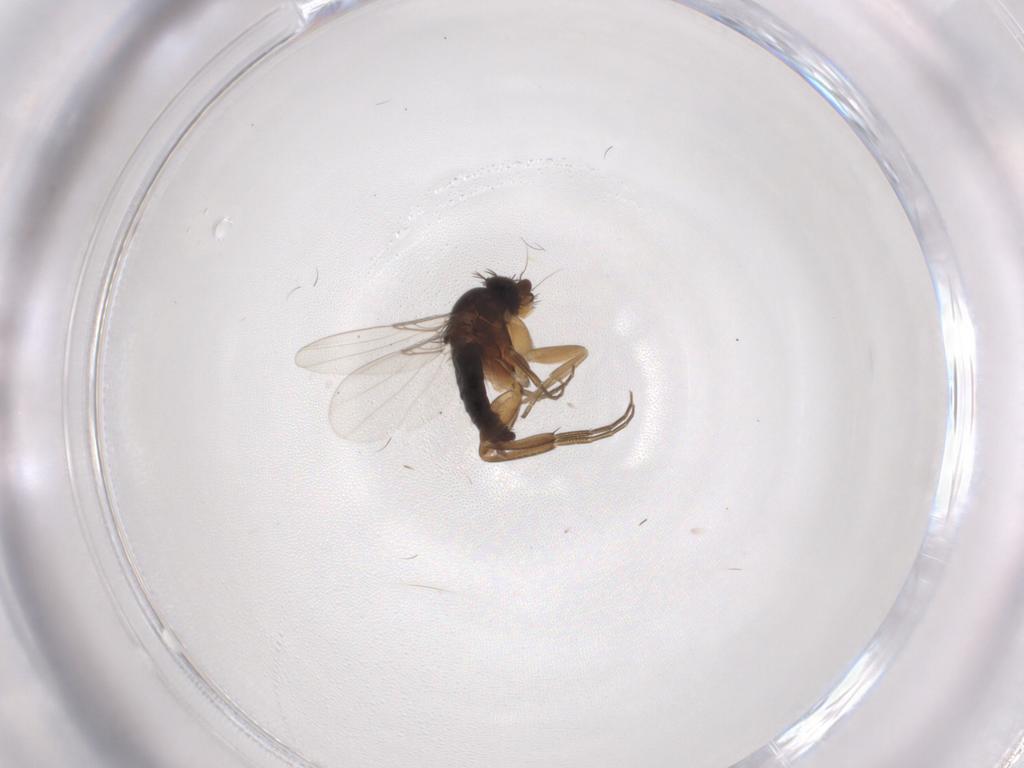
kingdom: Animalia
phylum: Arthropoda
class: Insecta
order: Diptera
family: Phoridae
